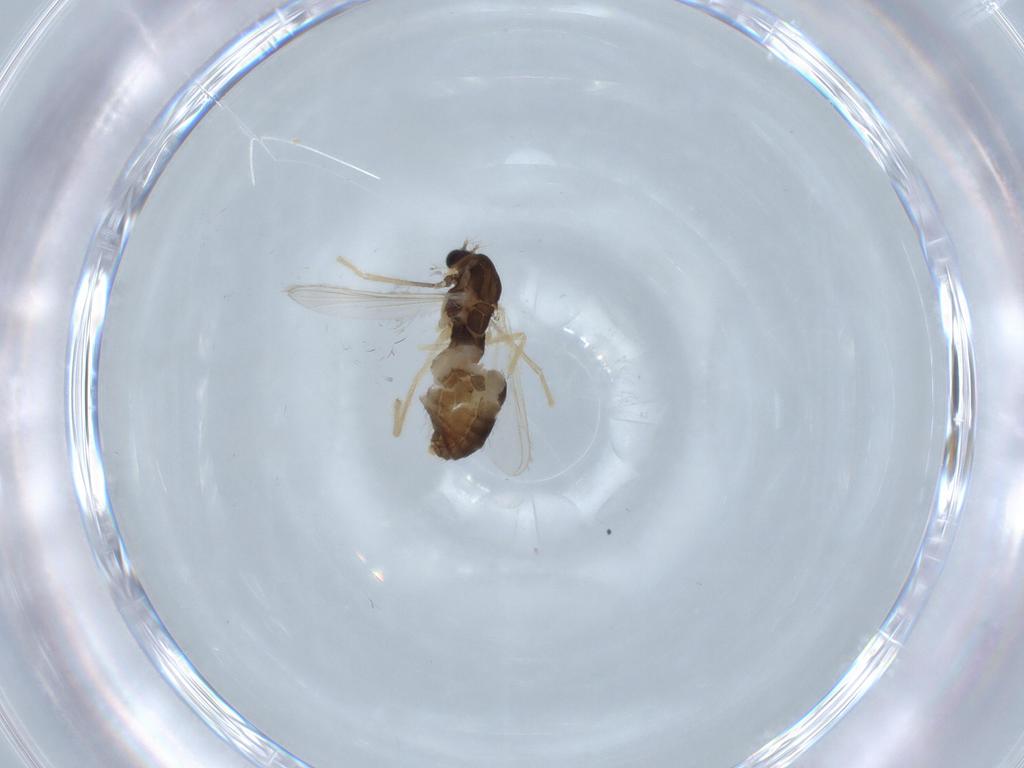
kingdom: Animalia
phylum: Arthropoda
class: Insecta
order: Diptera
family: Chironomidae
